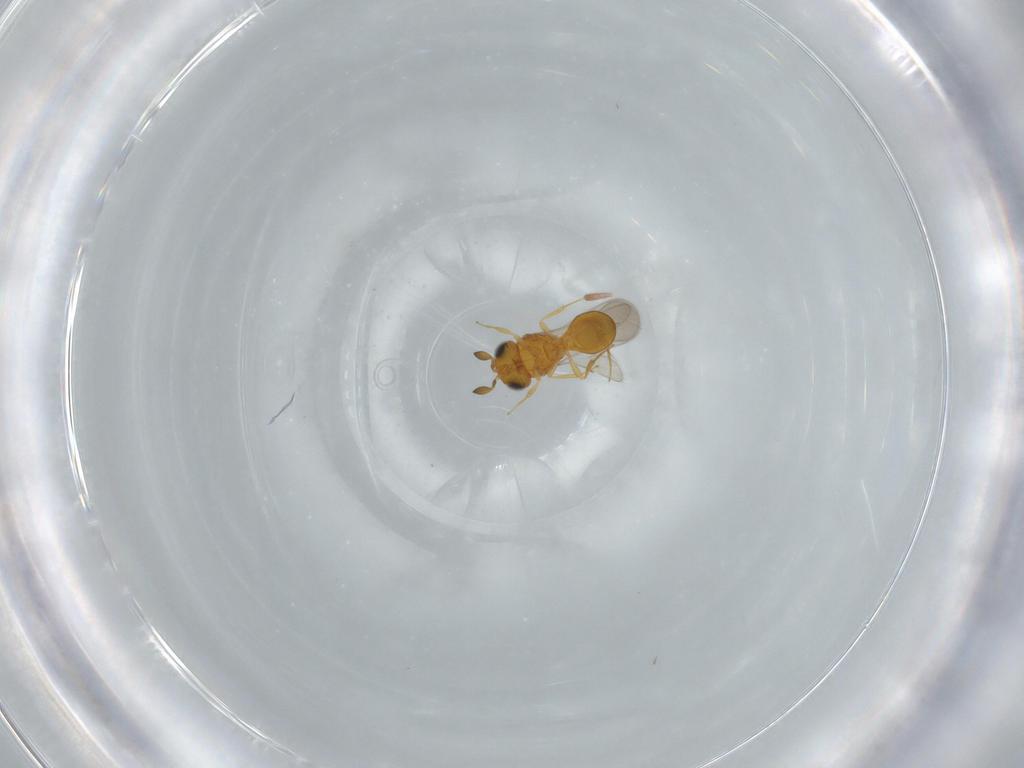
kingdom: Animalia
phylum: Arthropoda
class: Insecta
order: Hymenoptera
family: Scelionidae
